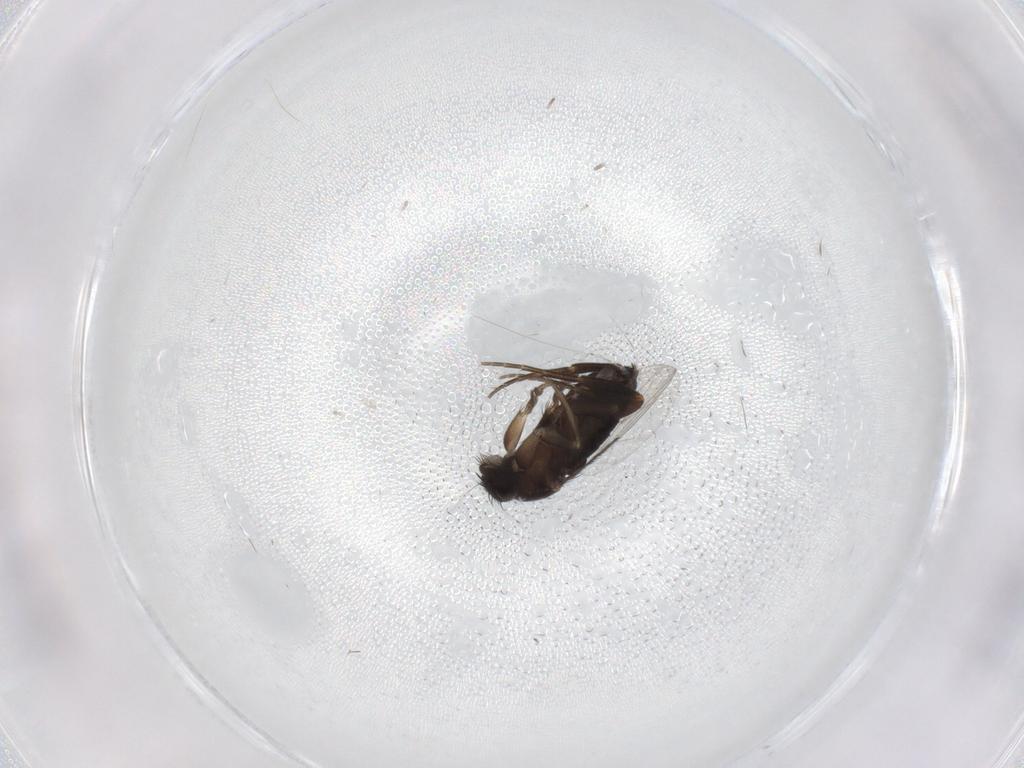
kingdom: Animalia
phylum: Arthropoda
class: Insecta
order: Diptera
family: Phoridae
